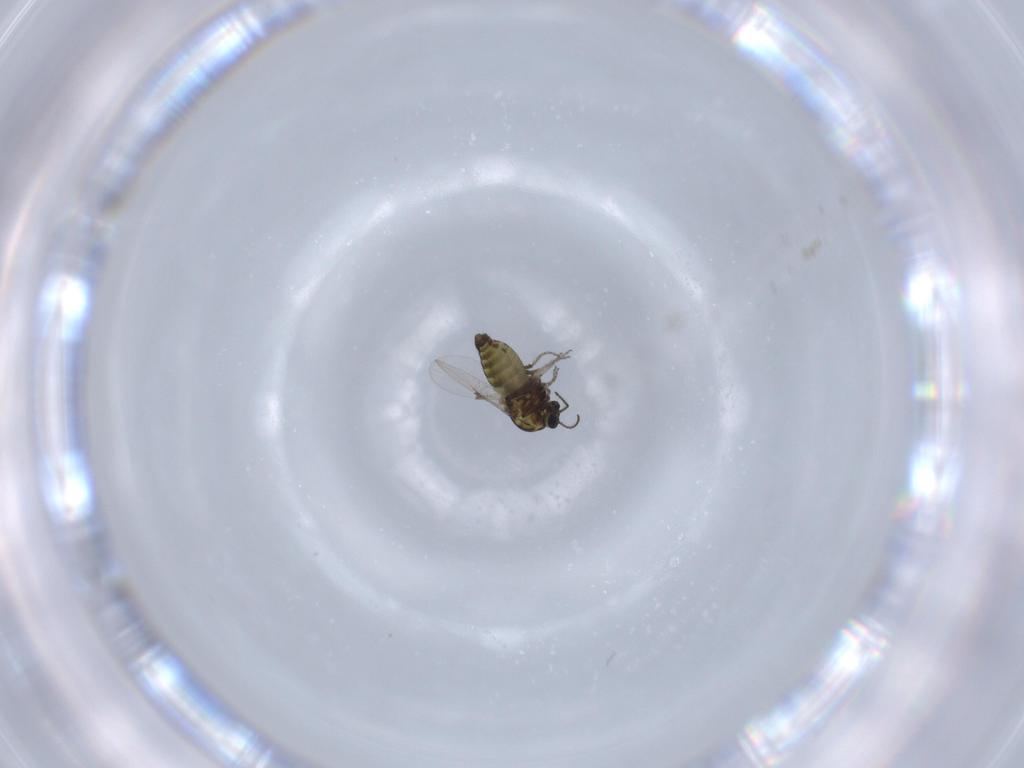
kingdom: Animalia
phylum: Arthropoda
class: Insecta
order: Diptera
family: Ceratopogonidae
